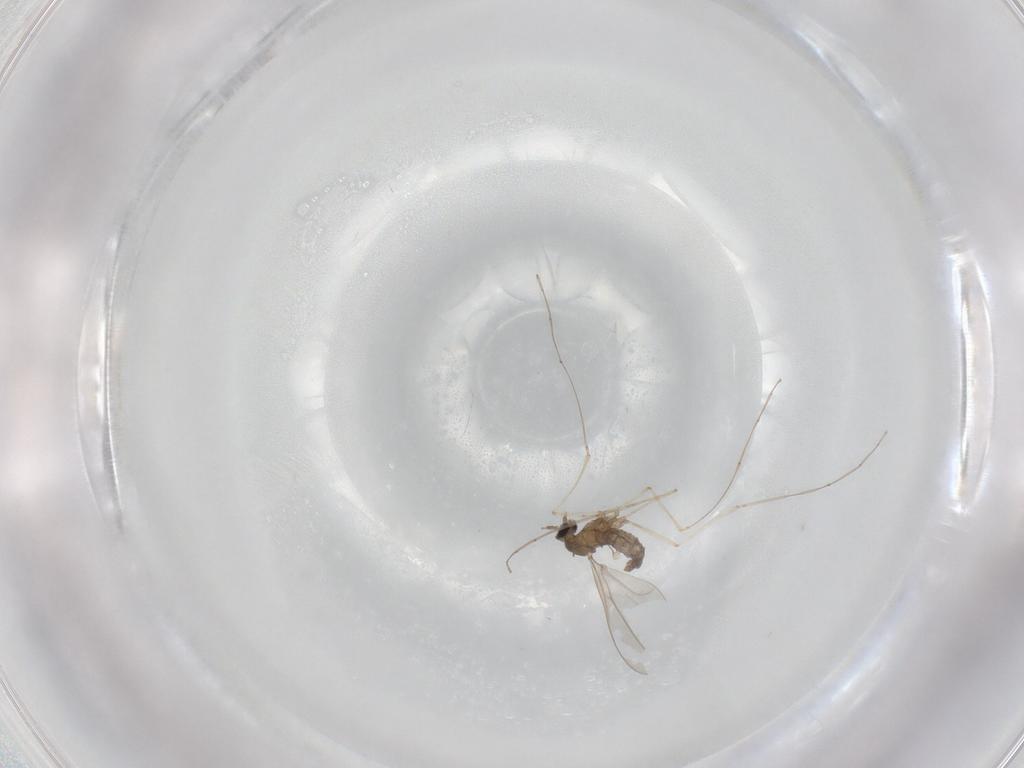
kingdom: Animalia
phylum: Arthropoda
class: Insecta
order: Diptera
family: Cecidomyiidae
